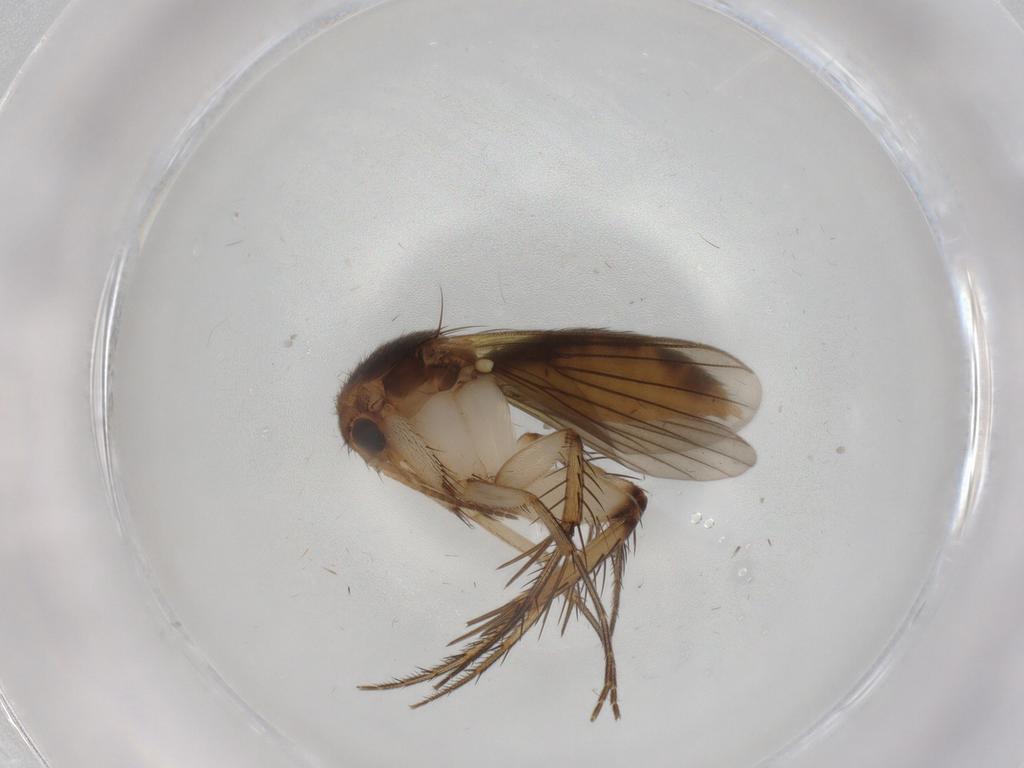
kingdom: Animalia
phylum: Arthropoda
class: Insecta
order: Diptera
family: Mycetophilidae
